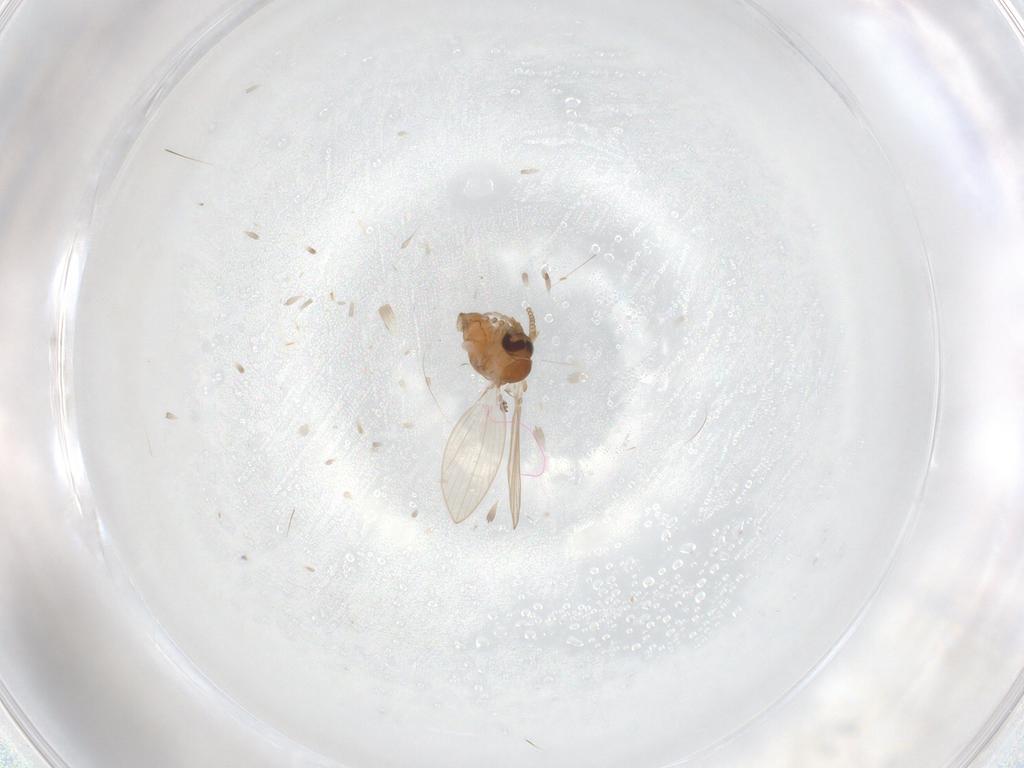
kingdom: Animalia
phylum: Arthropoda
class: Insecta
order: Diptera
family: Psychodidae
